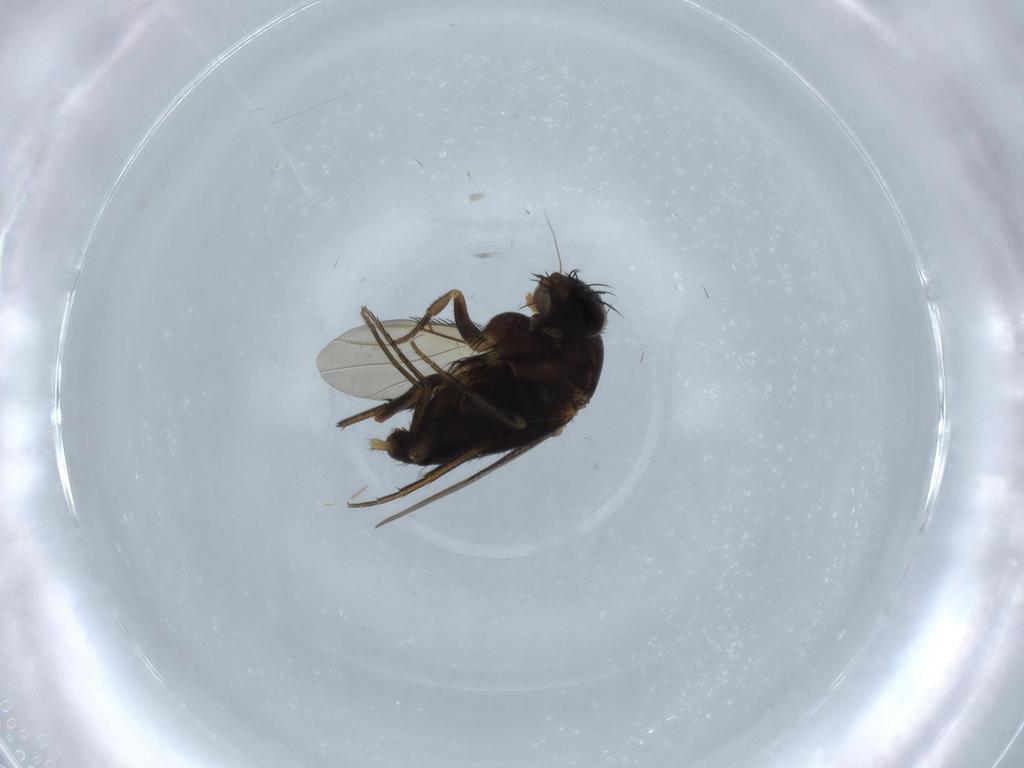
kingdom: Animalia
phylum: Arthropoda
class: Insecta
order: Diptera
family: Phoridae
